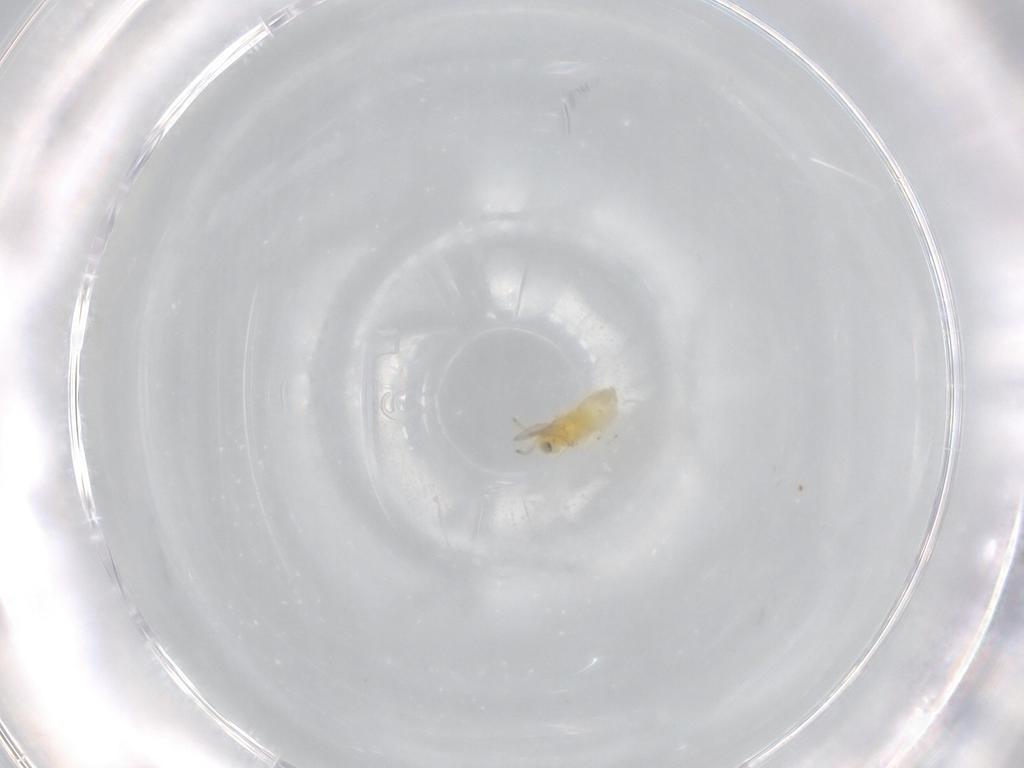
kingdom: Animalia
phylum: Arthropoda
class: Insecta
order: Hymenoptera
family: Aphelinidae
